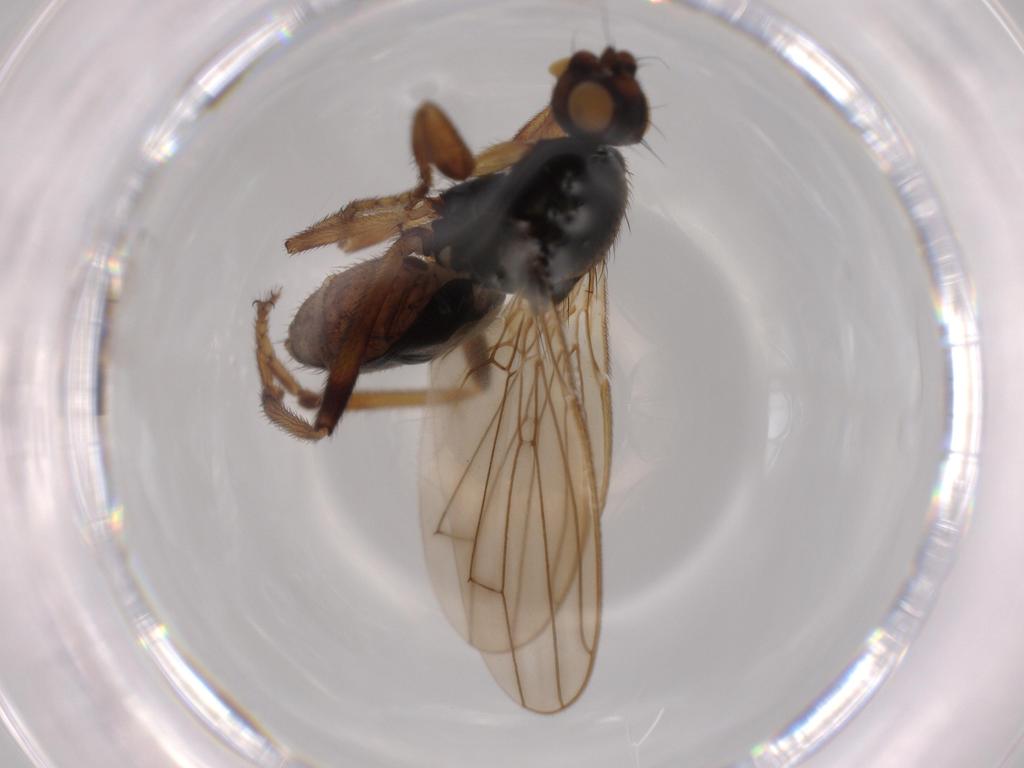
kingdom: Animalia
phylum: Arthropoda
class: Insecta
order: Diptera
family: Sphaeroceridae
